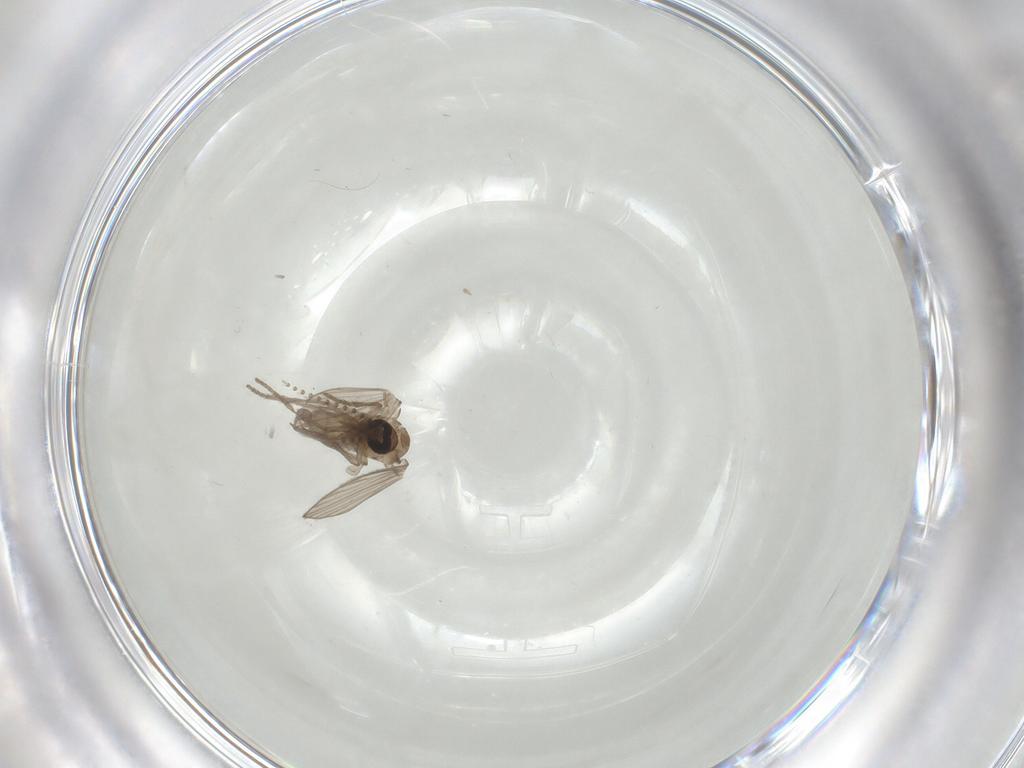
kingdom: Animalia
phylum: Arthropoda
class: Insecta
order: Diptera
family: Psychodidae
